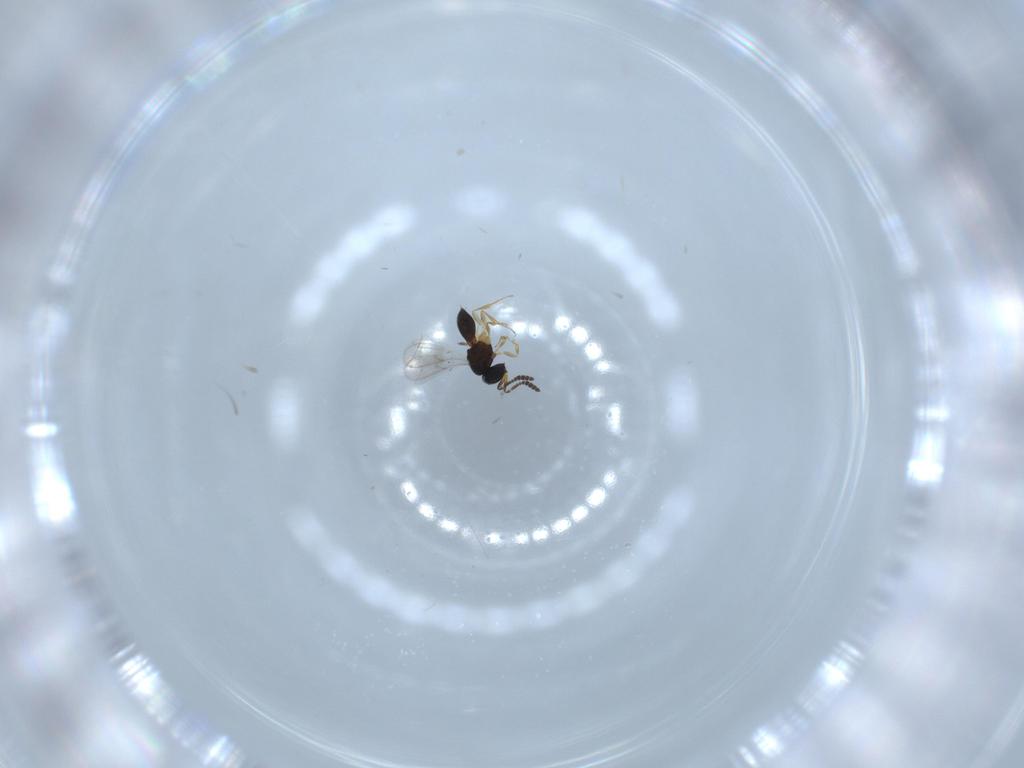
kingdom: Animalia
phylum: Arthropoda
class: Insecta
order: Hymenoptera
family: Scelionidae
